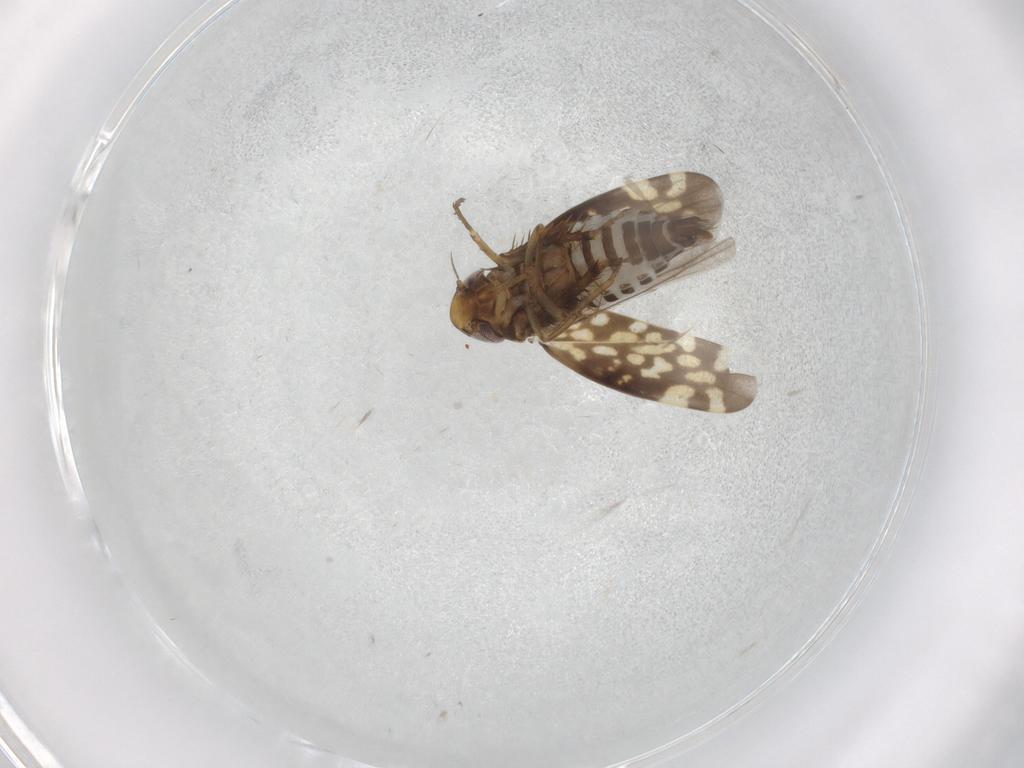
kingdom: Animalia
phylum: Arthropoda
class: Insecta
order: Hemiptera
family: Cicadellidae
